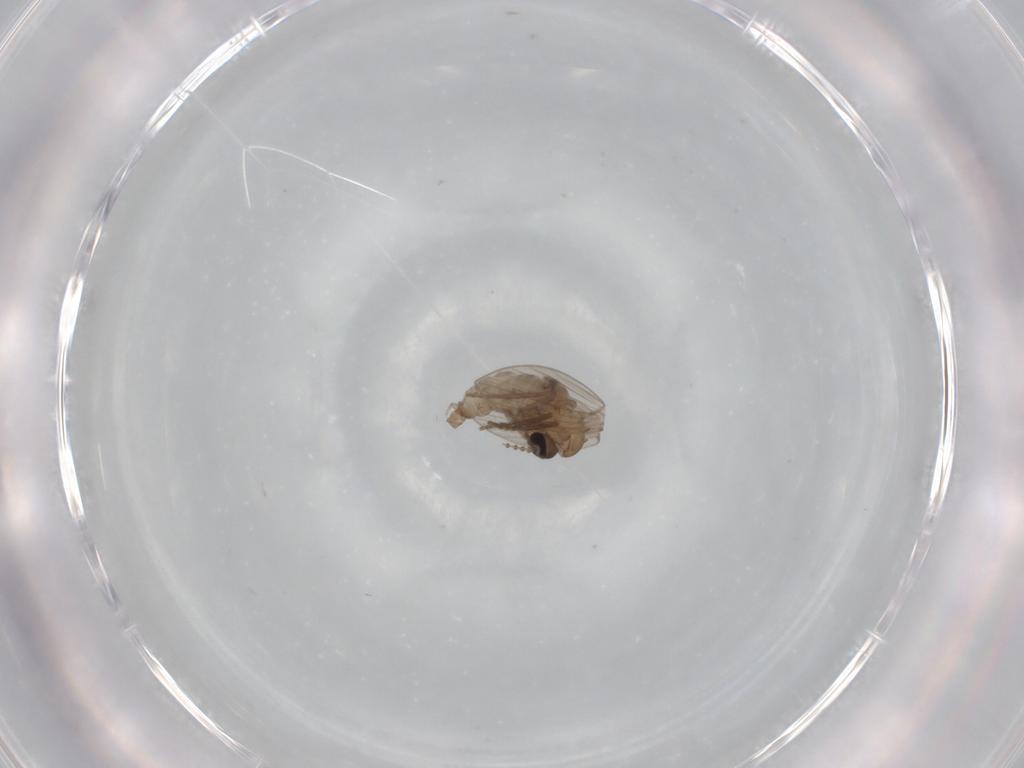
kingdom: Animalia
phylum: Arthropoda
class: Insecta
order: Diptera
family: Psychodidae
